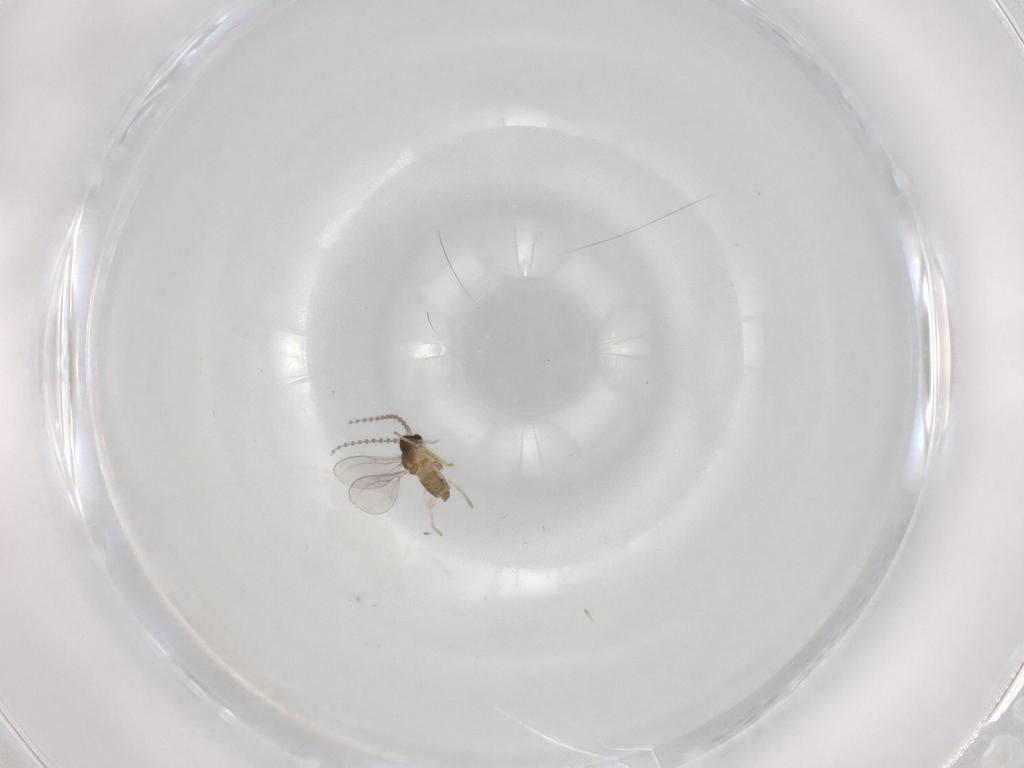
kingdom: Animalia
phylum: Arthropoda
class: Insecta
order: Diptera
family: Cecidomyiidae
